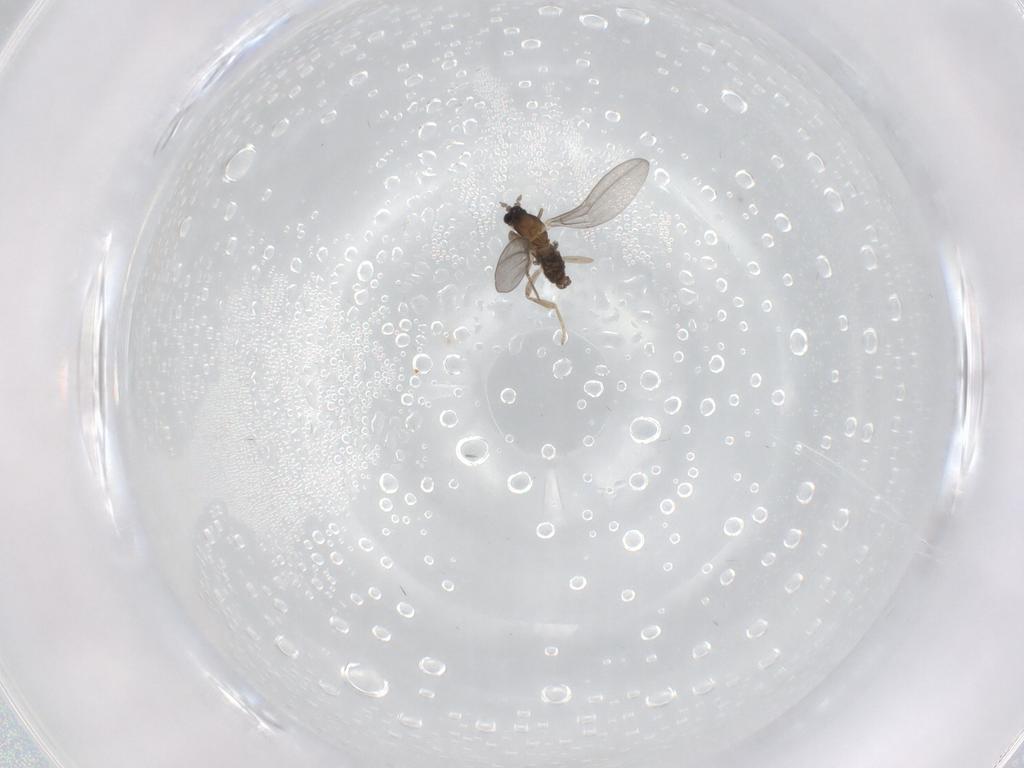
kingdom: Animalia
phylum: Arthropoda
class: Insecta
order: Diptera
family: Cecidomyiidae
